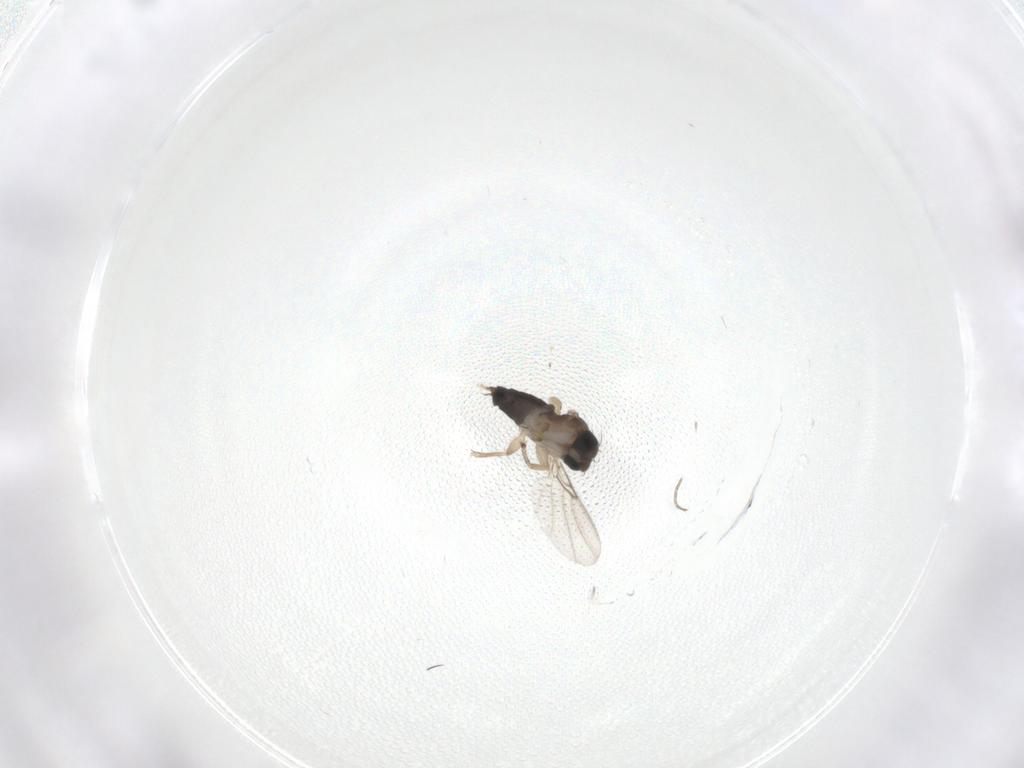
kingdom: Animalia
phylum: Arthropoda
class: Insecta
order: Diptera
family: Phoridae
